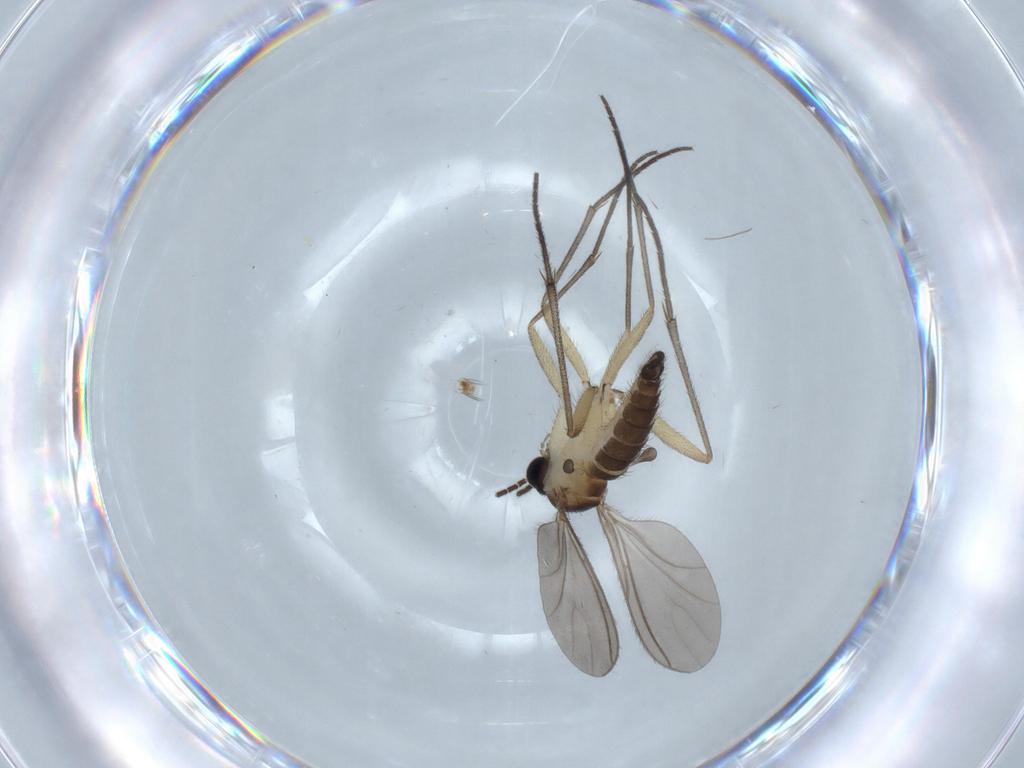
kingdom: Animalia
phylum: Arthropoda
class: Insecta
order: Diptera
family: Sciaridae
